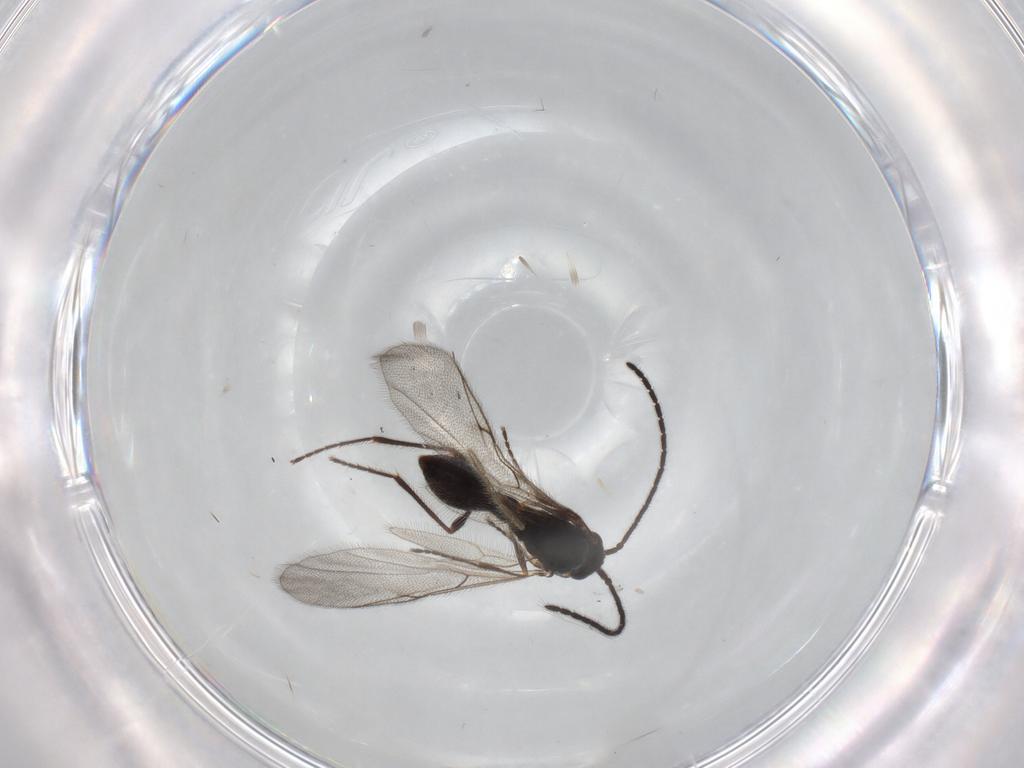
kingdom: Animalia
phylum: Arthropoda
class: Insecta
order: Hymenoptera
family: Diapriidae
